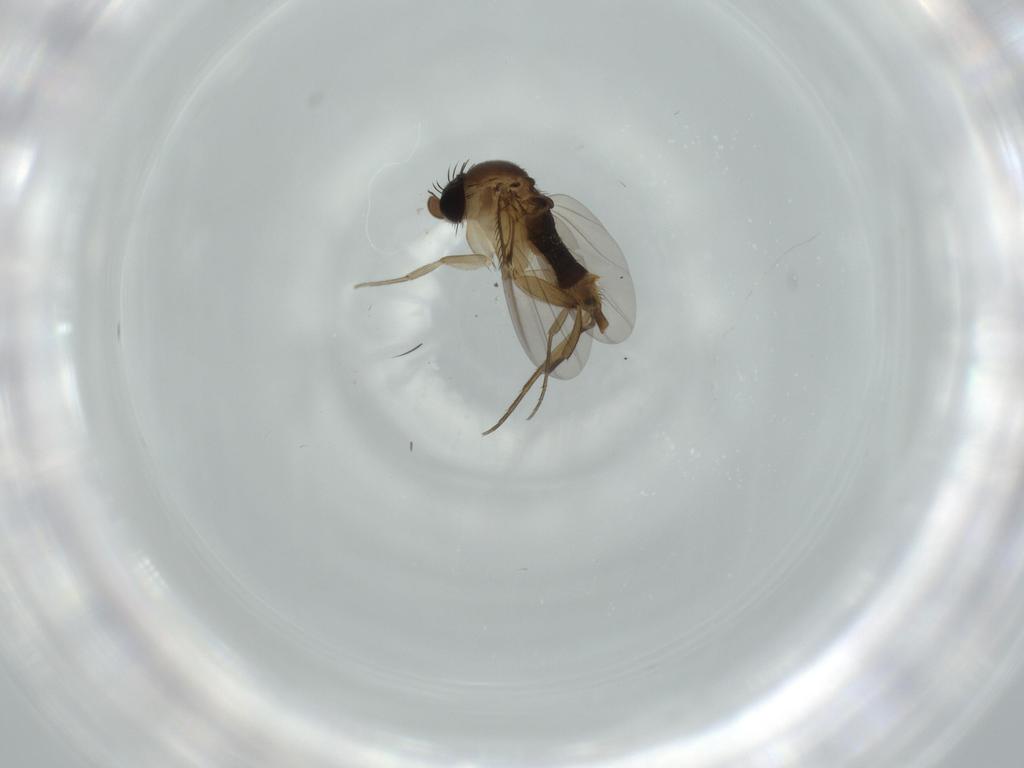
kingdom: Animalia
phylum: Arthropoda
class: Insecta
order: Diptera
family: Phoridae
